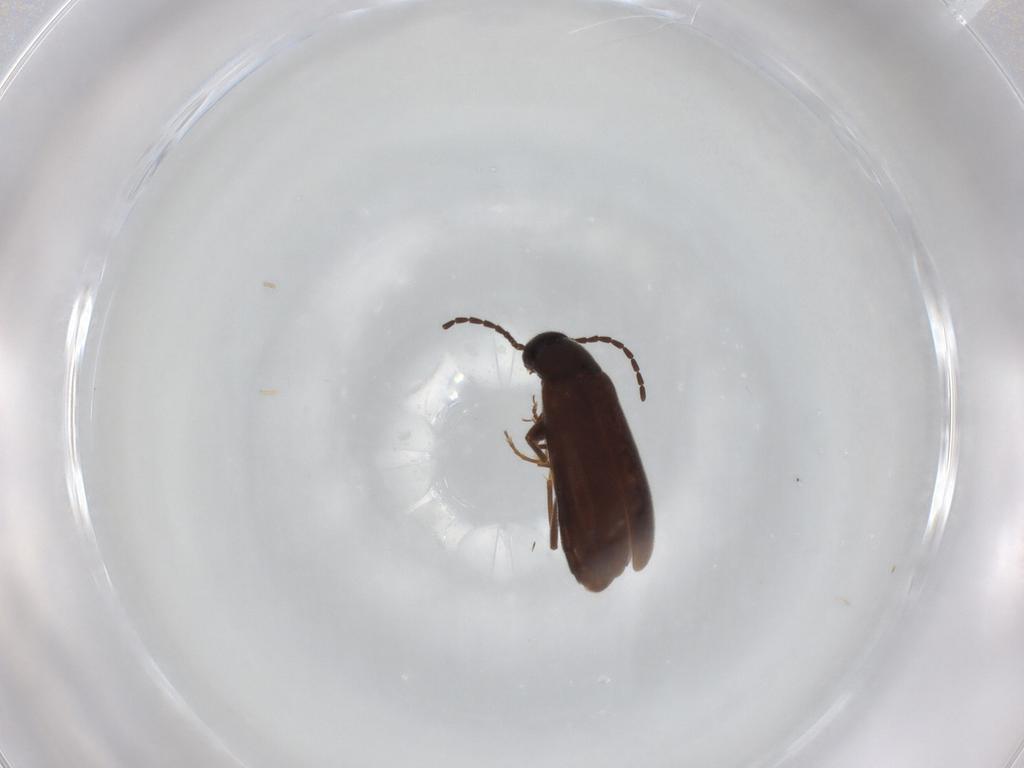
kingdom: Animalia
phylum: Arthropoda
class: Insecta
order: Coleoptera
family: Scraptiidae
